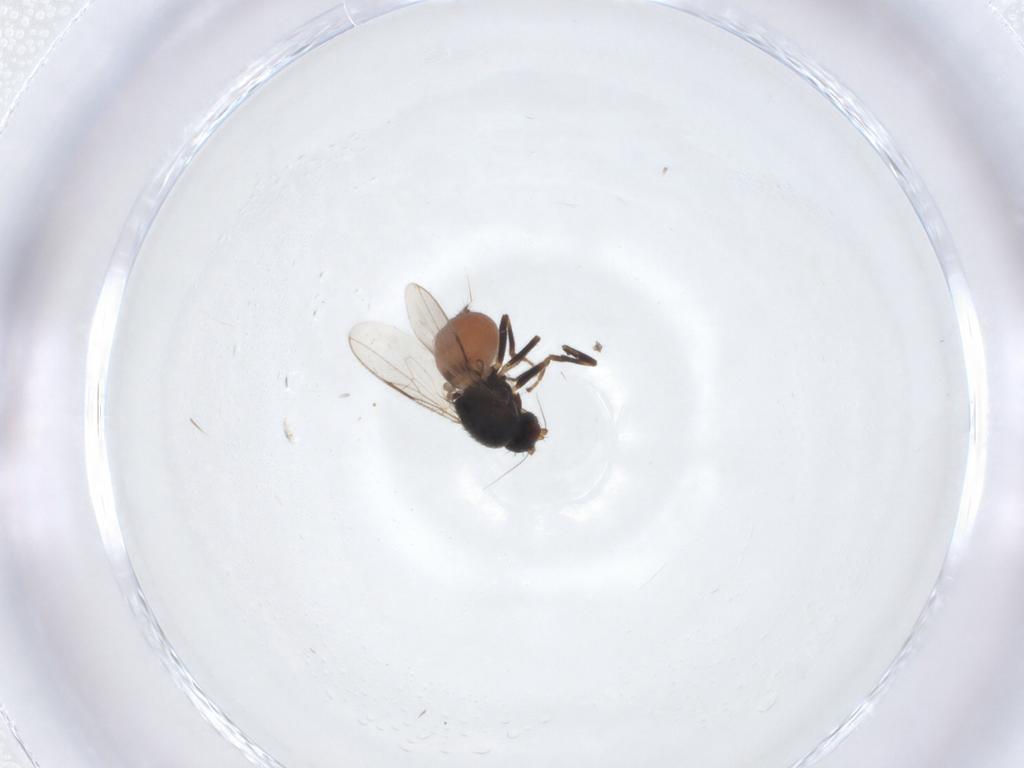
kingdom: Animalia
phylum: Arthropoda
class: Insecta
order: Diptera
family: Sphaeroceridae
